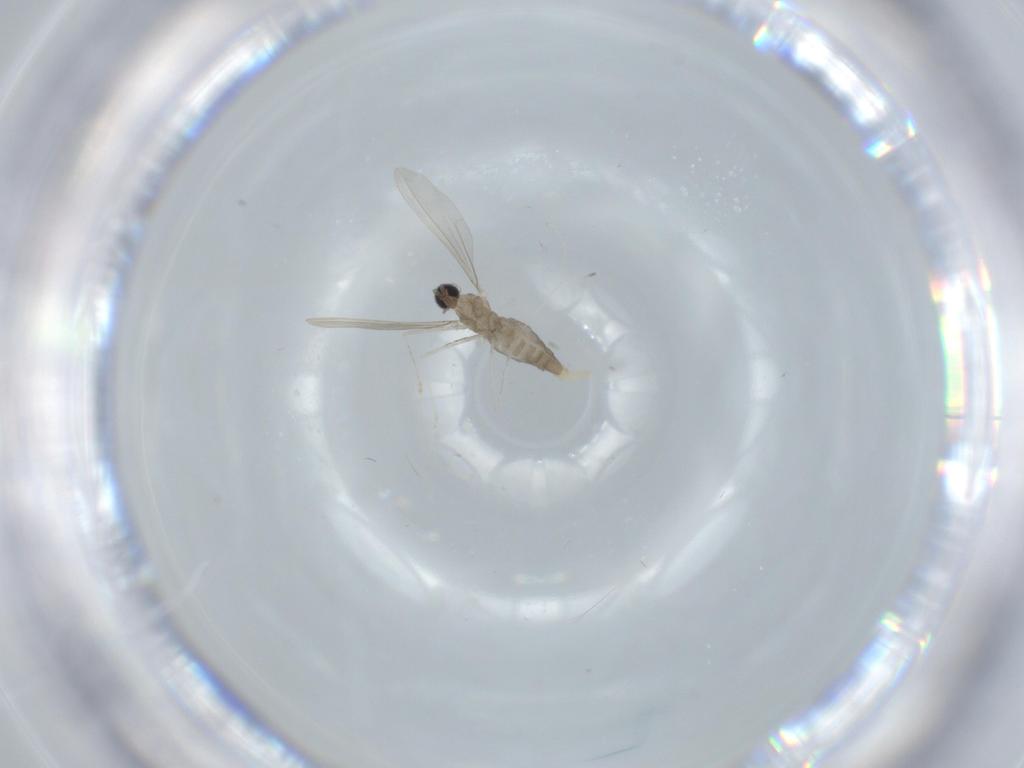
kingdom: Animalia
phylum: Arthropoda
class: Insecta
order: Diptera
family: Cecidomyiidae
